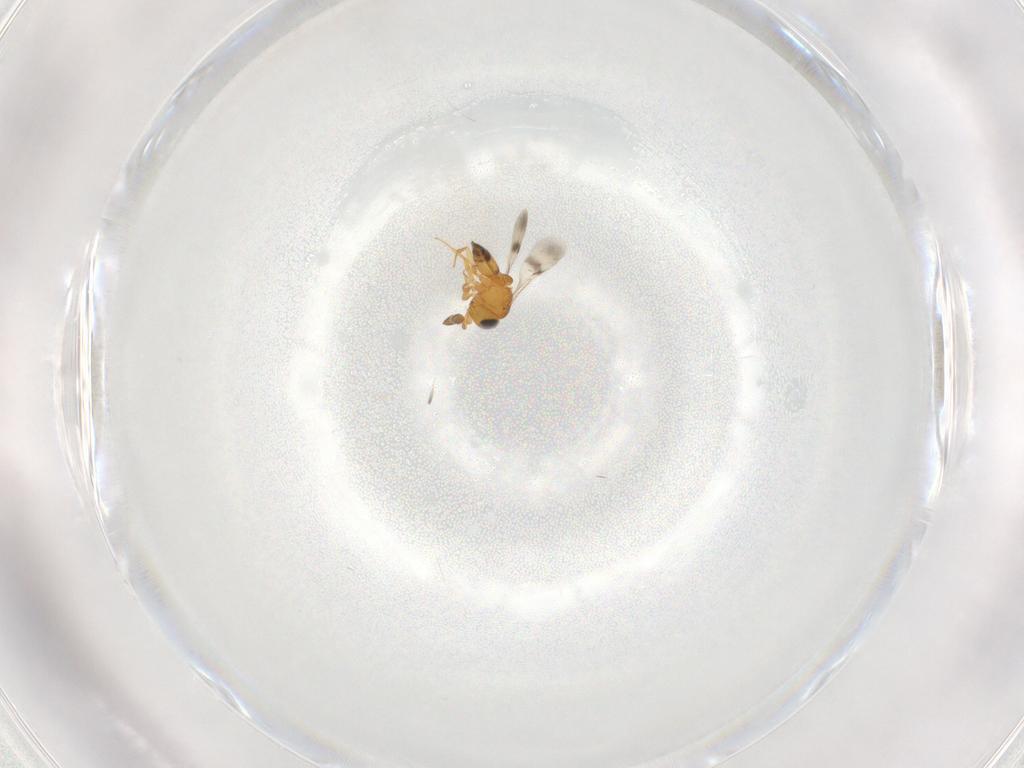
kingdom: Animalia
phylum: Arthropoda
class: Insecta
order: Hymenoptera
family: Scelionidae
